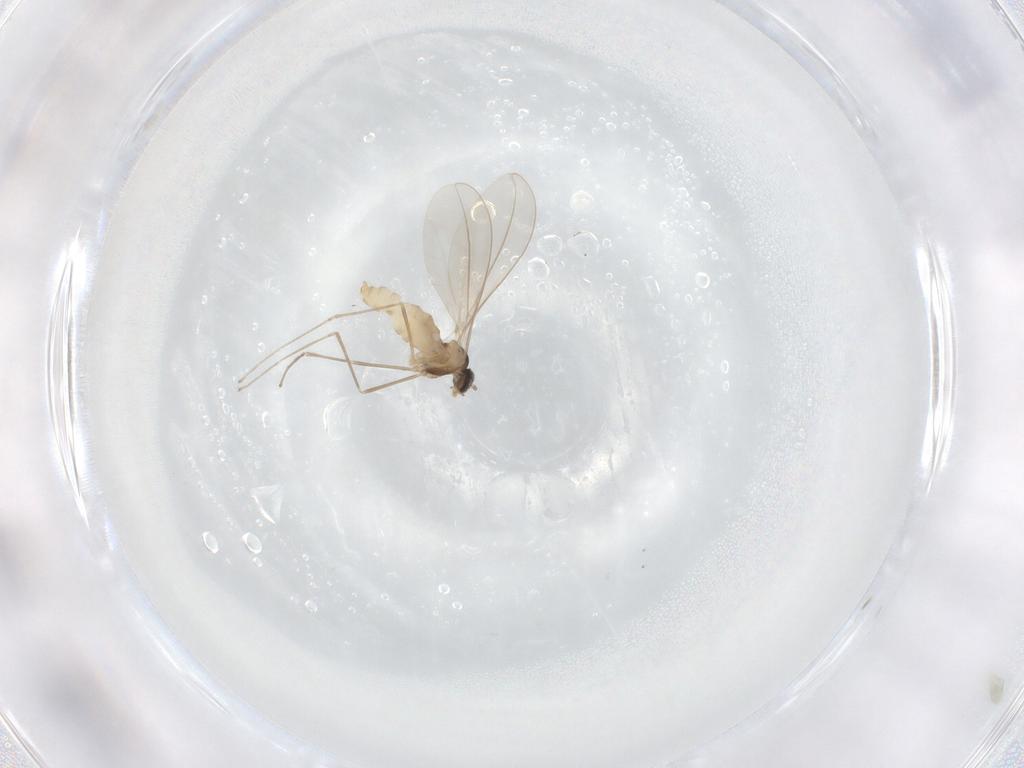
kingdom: Animalia
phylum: Arthropoda
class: Insecta
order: Diptera
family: Cecidomyiidae
